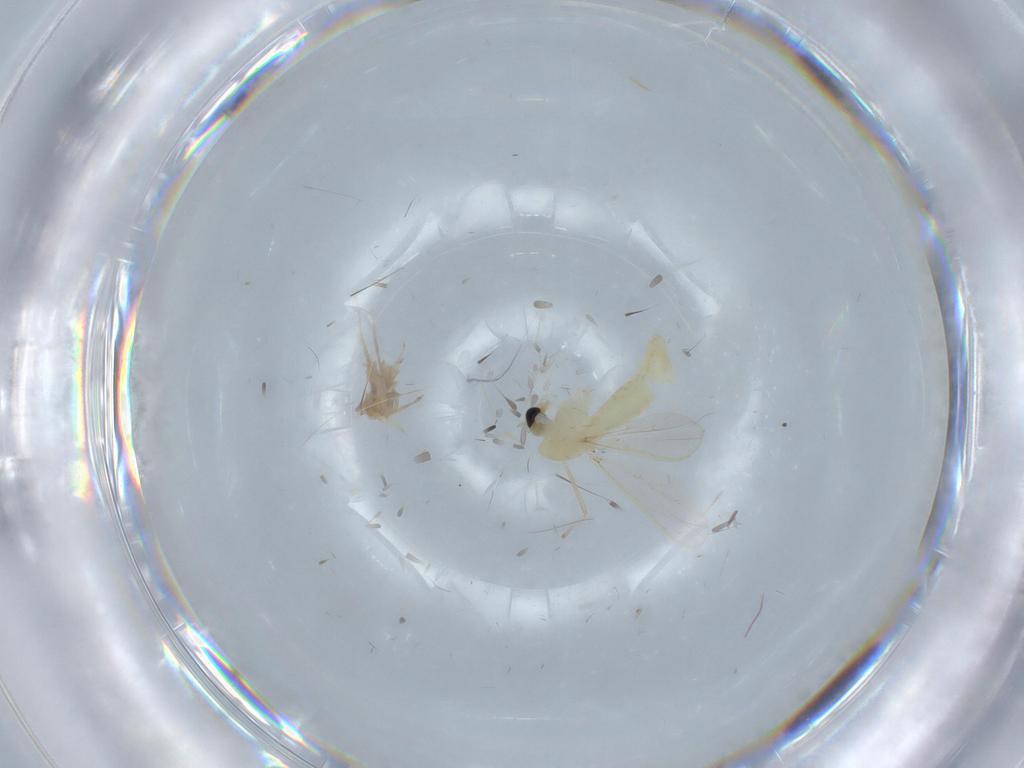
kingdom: Animalia
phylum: Arthropoda
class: Insecta
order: Diptera
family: Chironomidae
